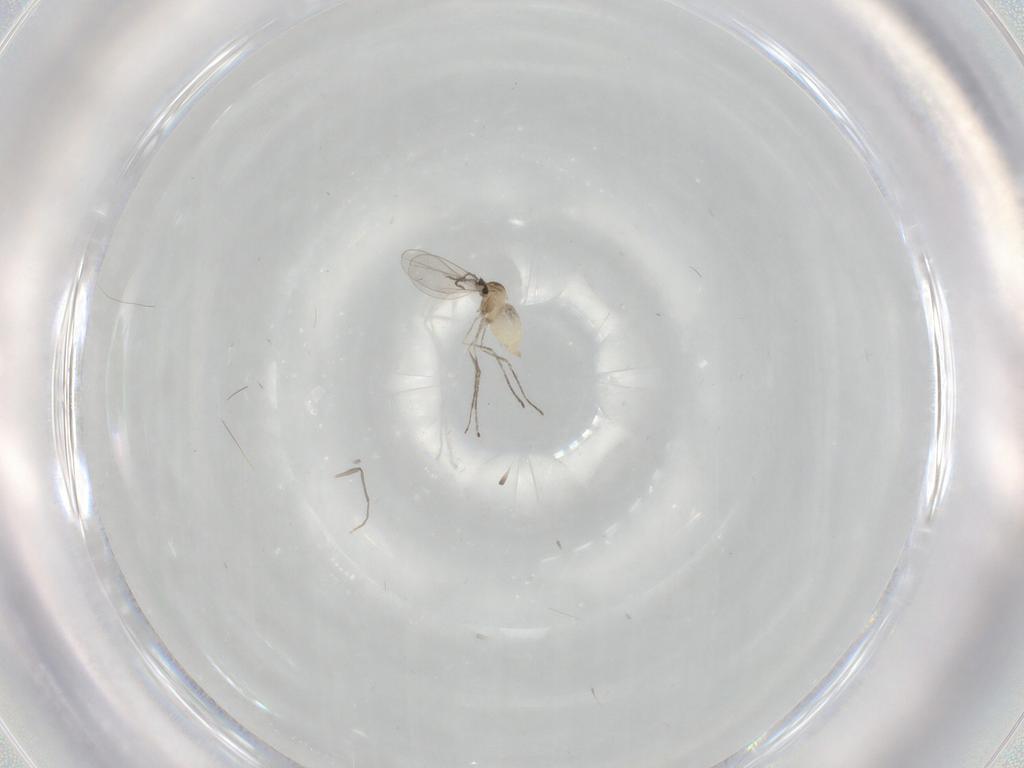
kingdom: Animalia
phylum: Arthropoda
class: Insecta
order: Diptera
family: Cecidomyiidae
